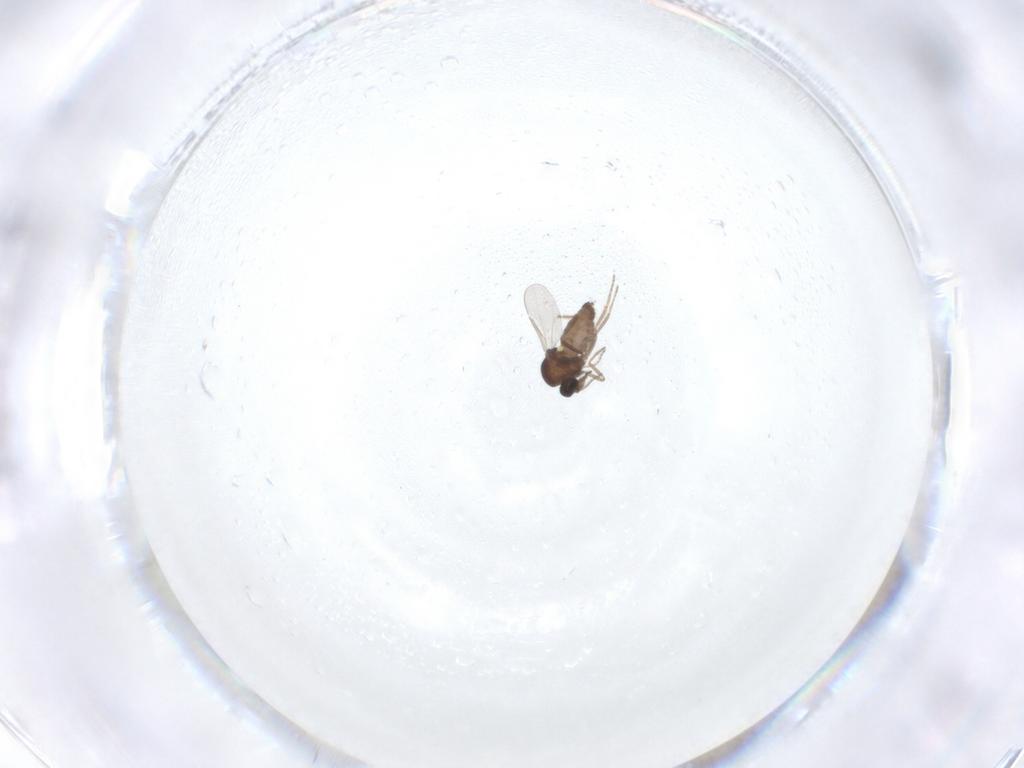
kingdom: Animalia
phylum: Arthropoda
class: Insecta
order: Diptera
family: Ceratopogonidae
